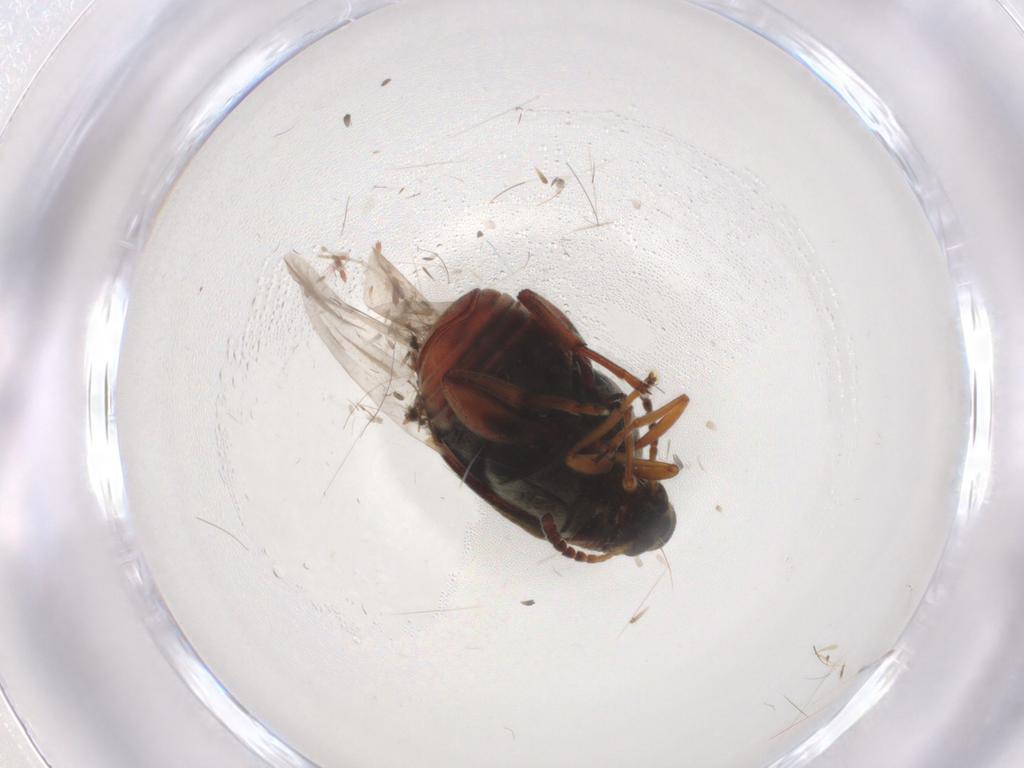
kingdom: Animalia
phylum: Arthropoda
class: Insecta
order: Coleoptera
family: Chrysomelidae
